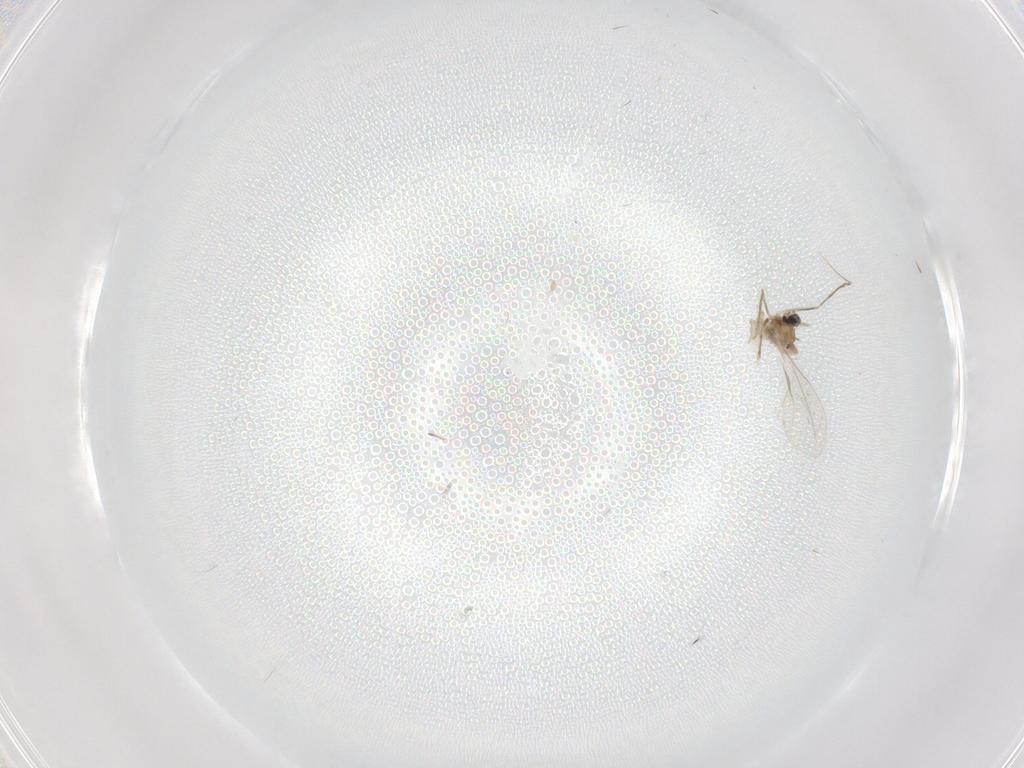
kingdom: Animalia
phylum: Arthropoda
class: Insecta
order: Diptera
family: Cecidomyiidae
